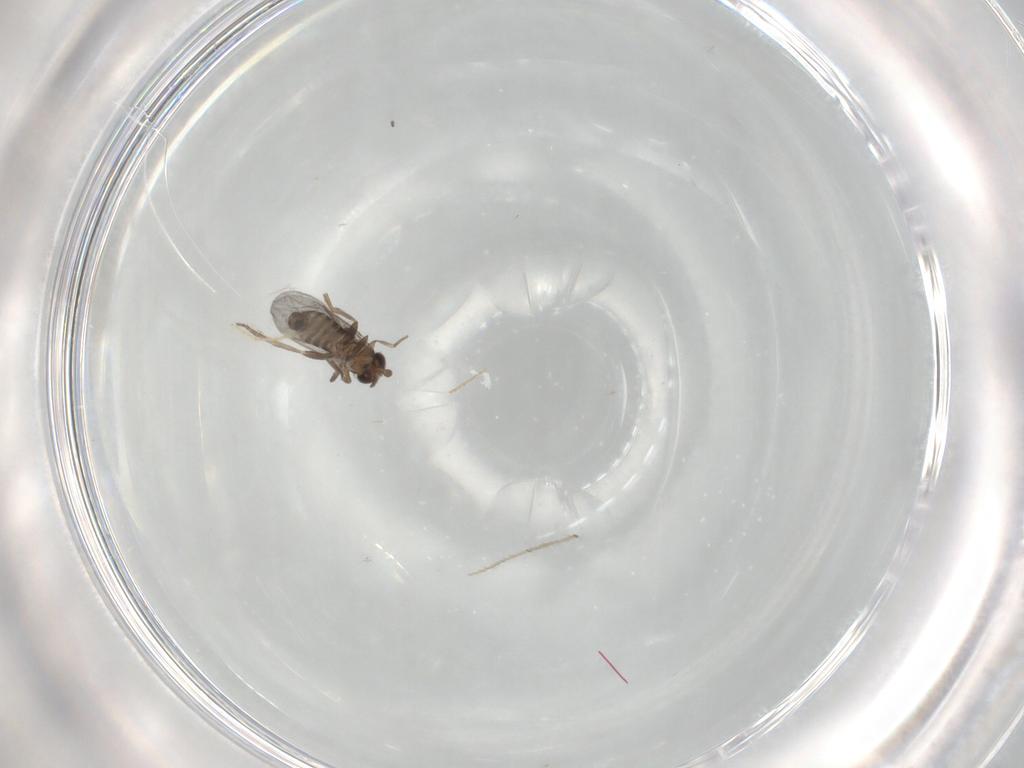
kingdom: Animalia
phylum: Arthropoda
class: Insecta
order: Diptera
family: Chironomidae
